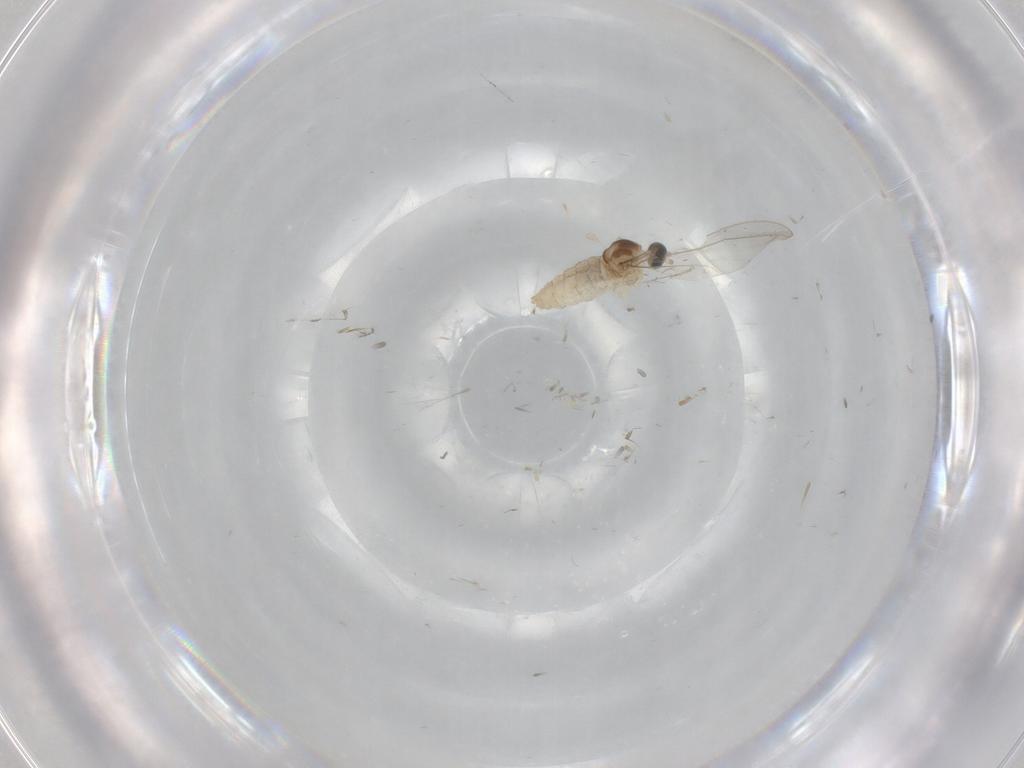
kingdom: Animalia
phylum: Arthropoda
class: Insecta
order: Diptera
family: Cecidomyiidae
